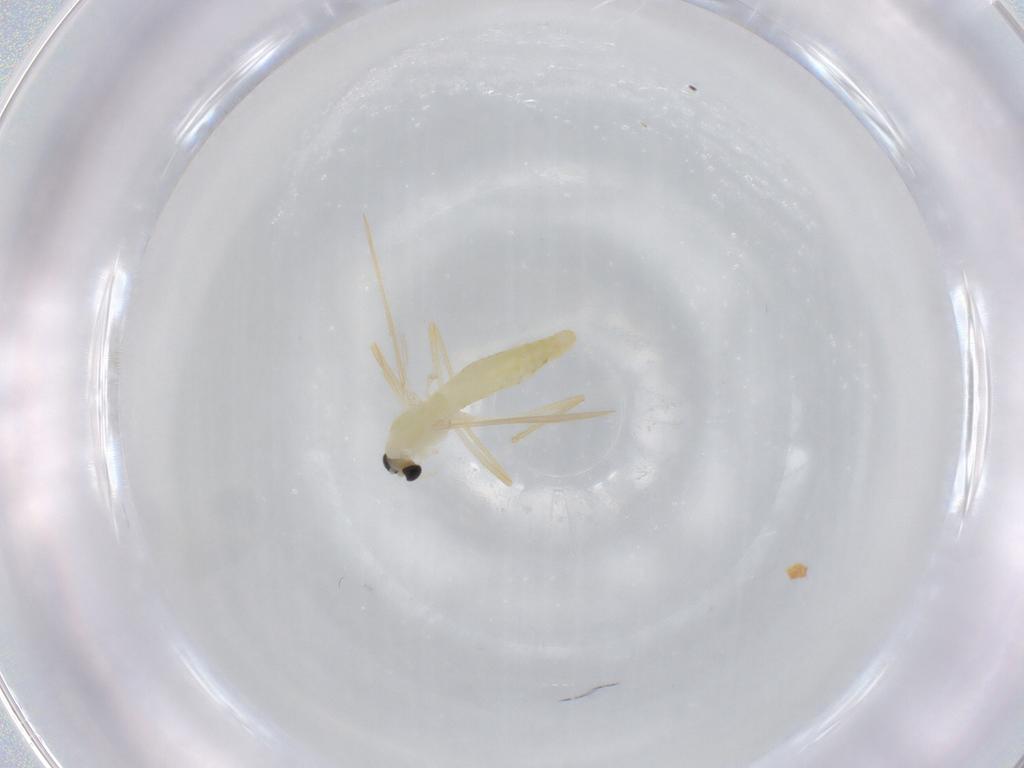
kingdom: Animalia
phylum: Arthropoda
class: Insecta
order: Diptera
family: Chironomidae
